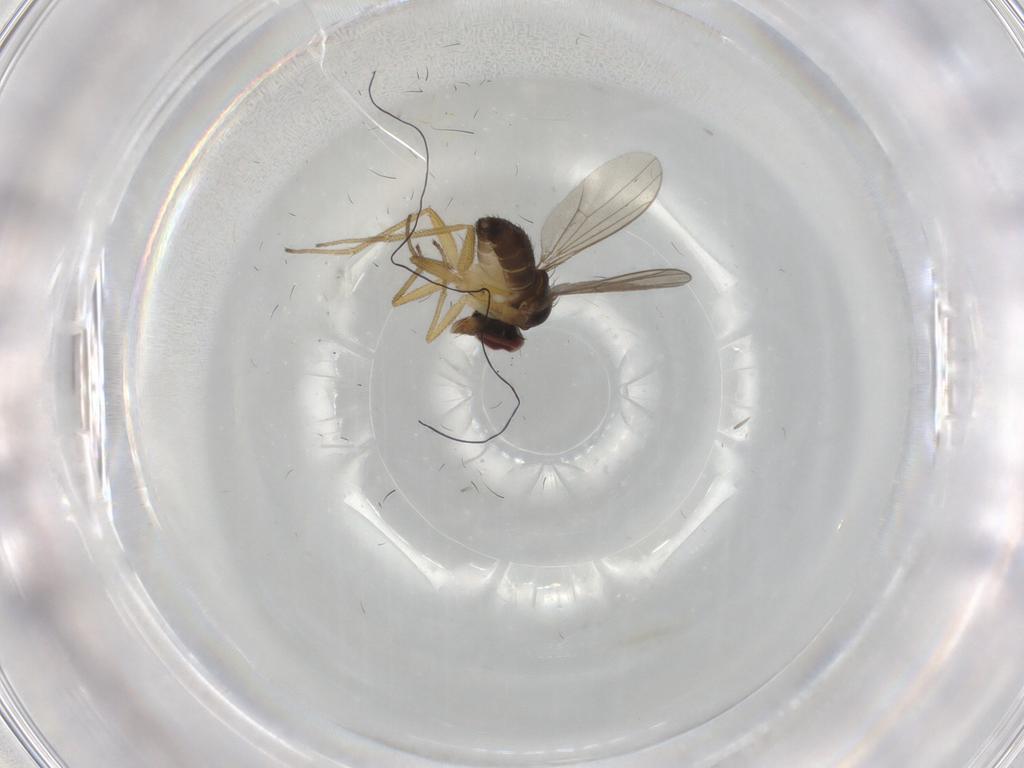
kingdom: Animalia
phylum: Arthropoda
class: Insecta
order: Diptera
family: Dolichopodidae
